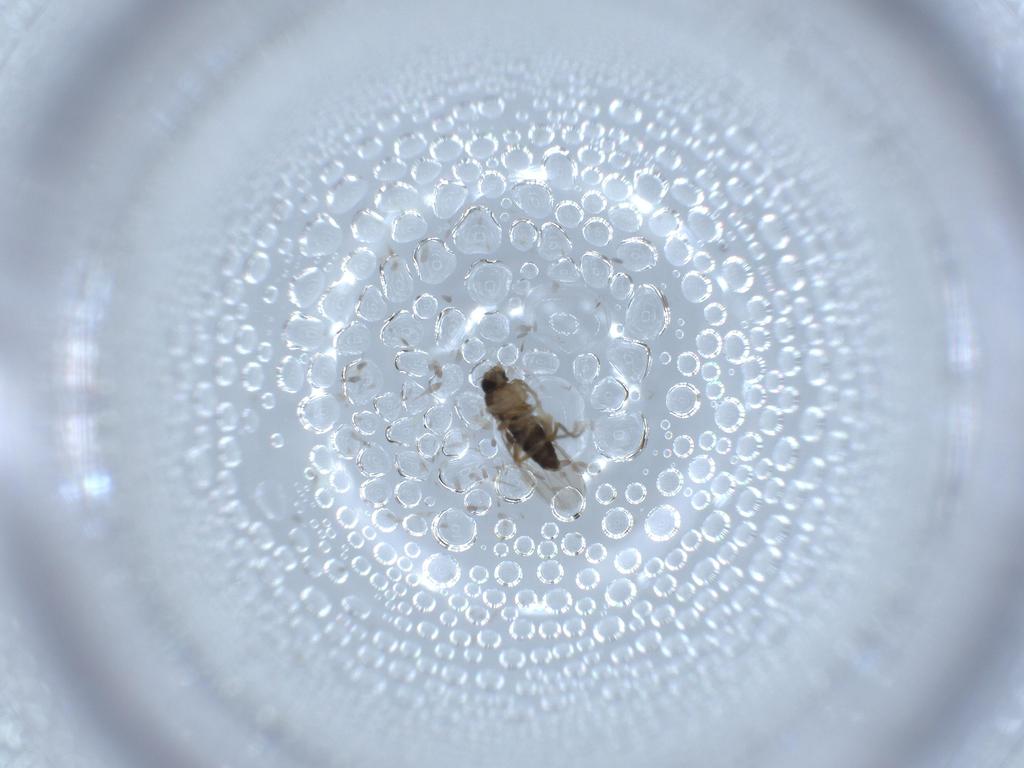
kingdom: Animalia
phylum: Arthropoda
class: Insecta
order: Diptera
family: Phoridae
